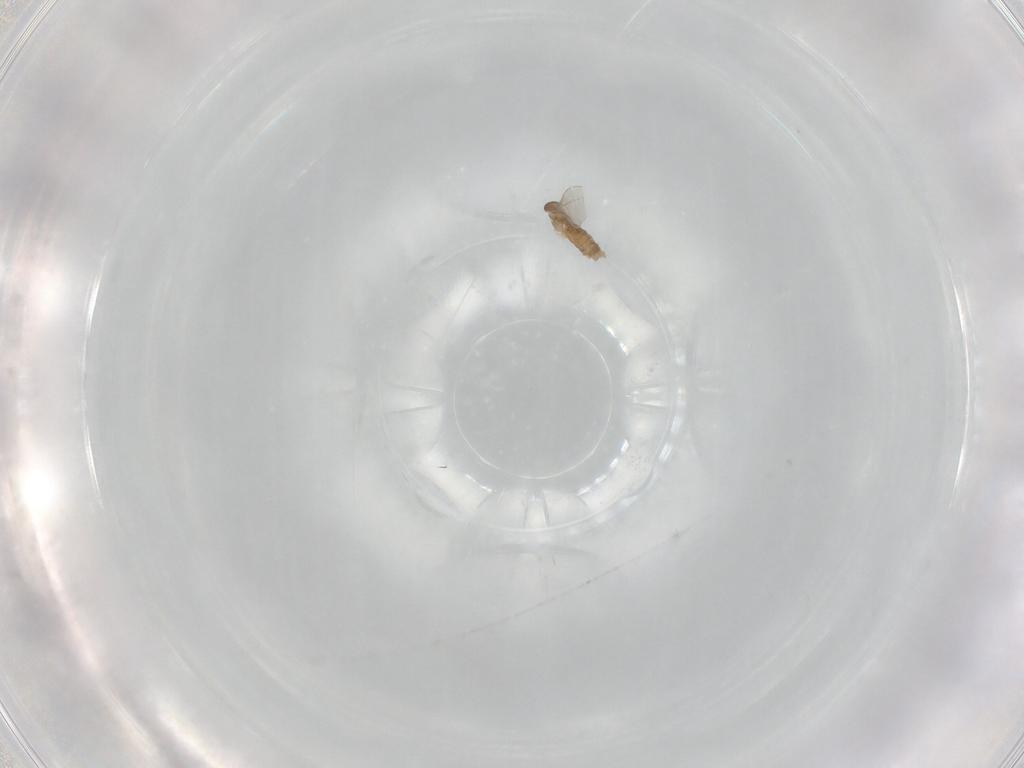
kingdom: Animalia
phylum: Arthropoda
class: Insecta
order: Diptera
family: Cecidomyiidae
